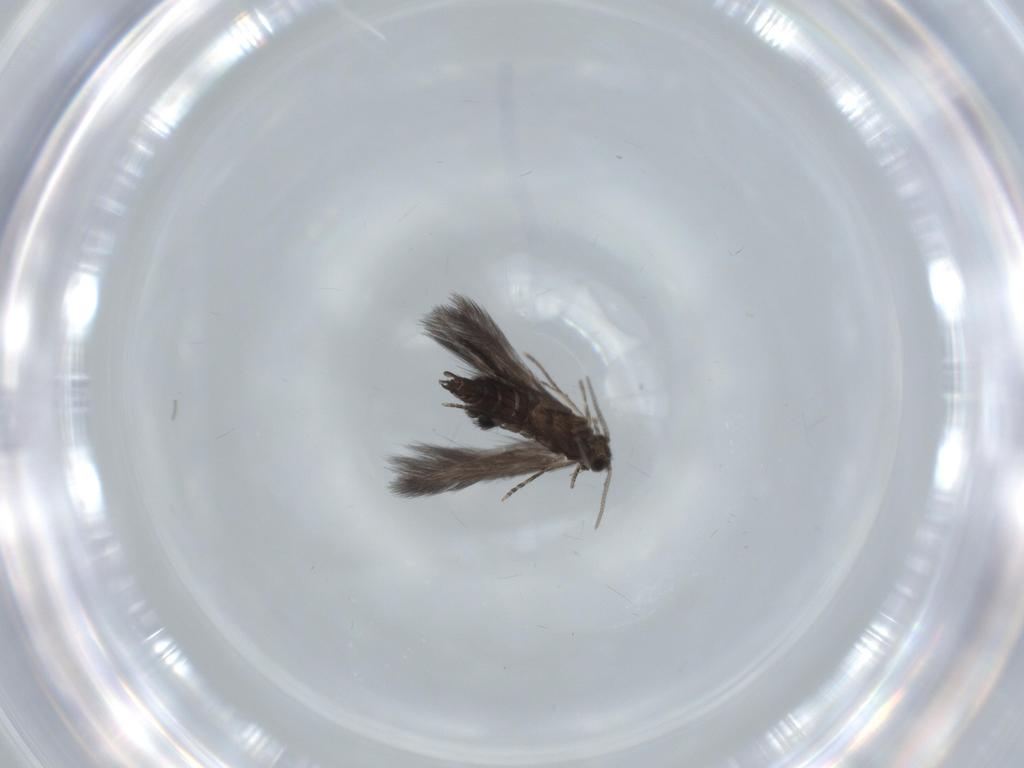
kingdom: Animalia
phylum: Arthropoda
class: Insecta
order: Trichoptera
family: Hydroptilidae
